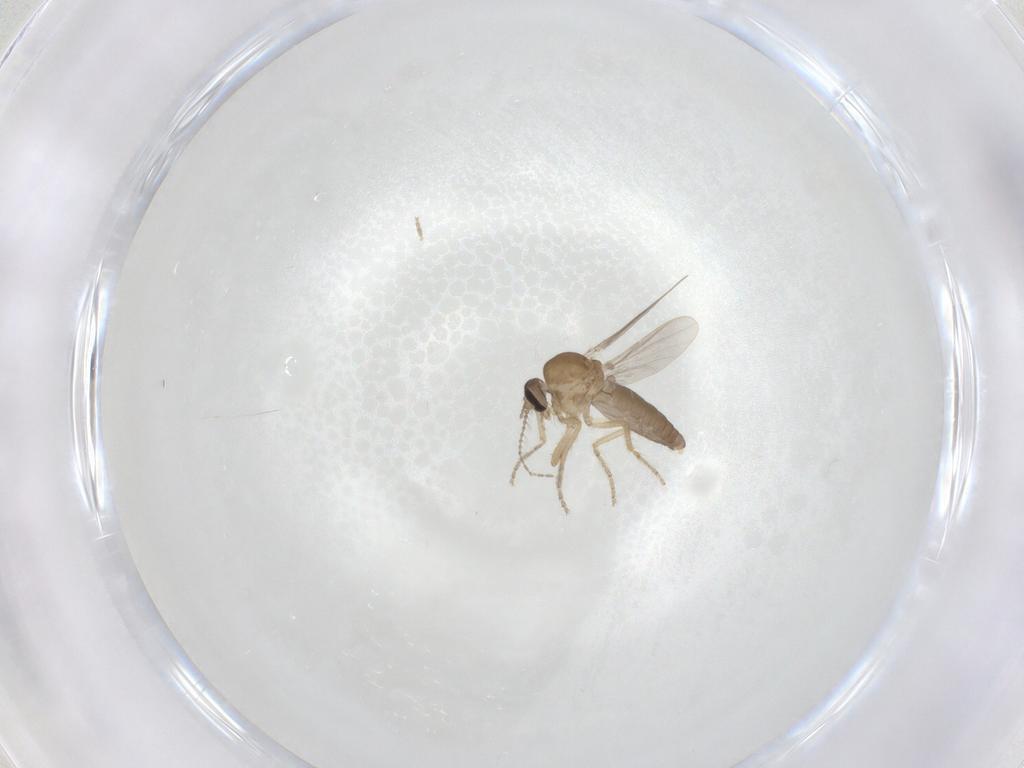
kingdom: Animalia
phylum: Arthropoda
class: Insecta
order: Diptera
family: Ceratopogonidae
